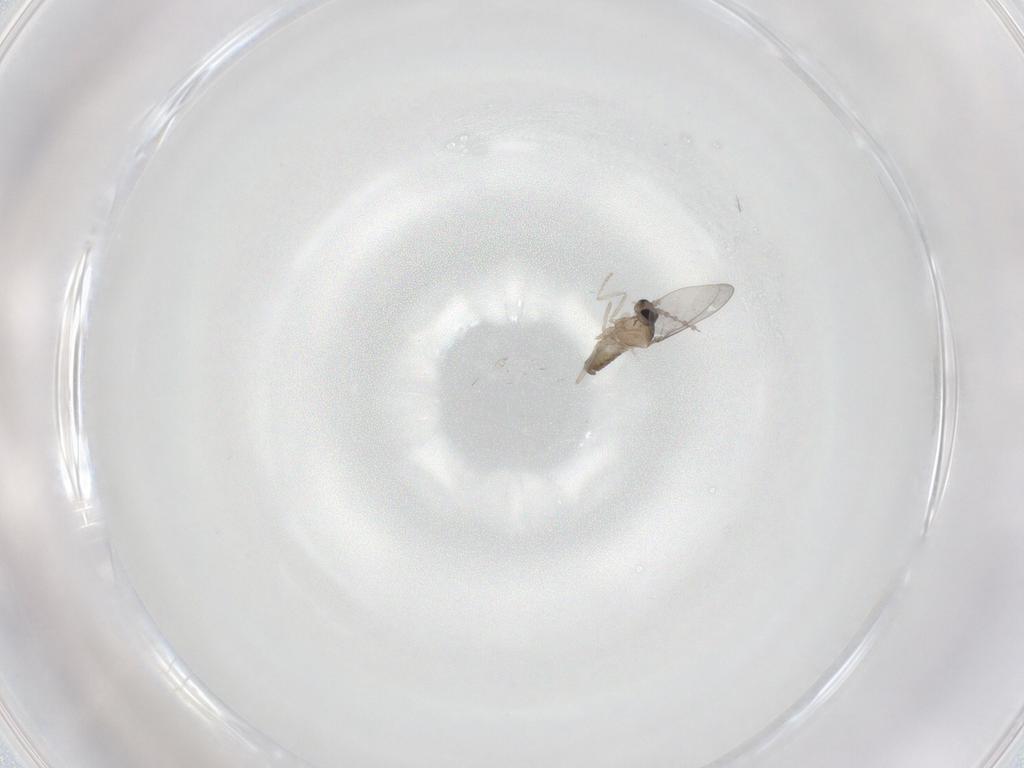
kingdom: Animalia
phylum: Arthropoda
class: Insecta
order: Diptera
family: Cecidomyiidae
